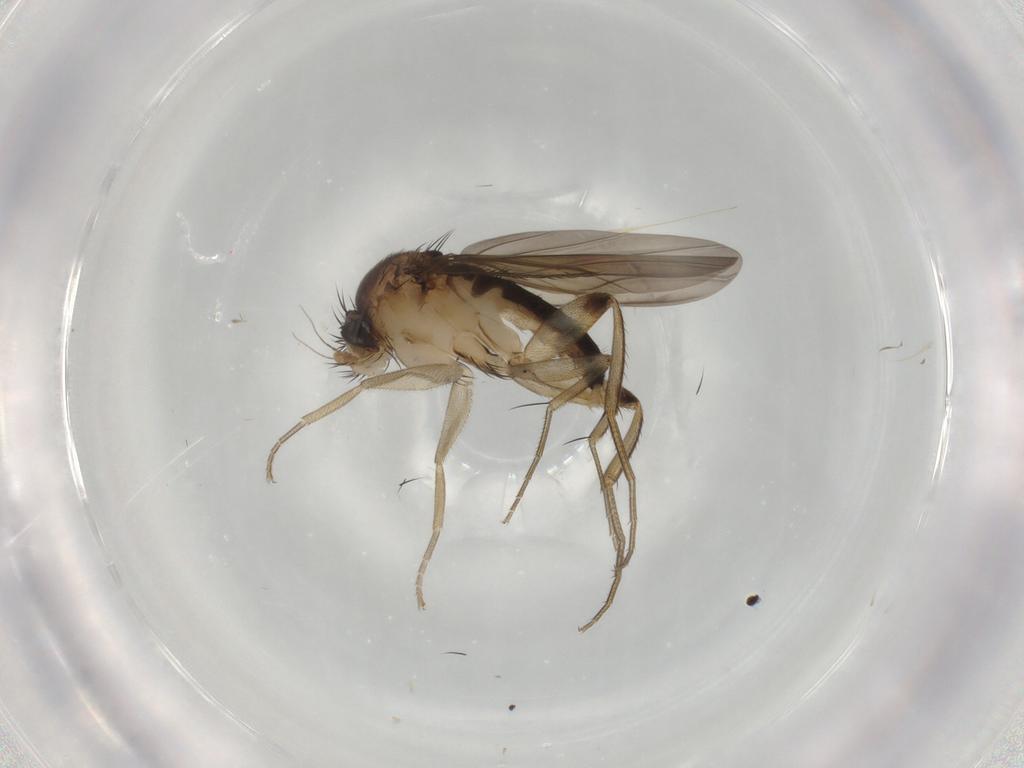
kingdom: Animalia
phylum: Arthropoda
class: Insecta
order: Diptera
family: Phoridae
